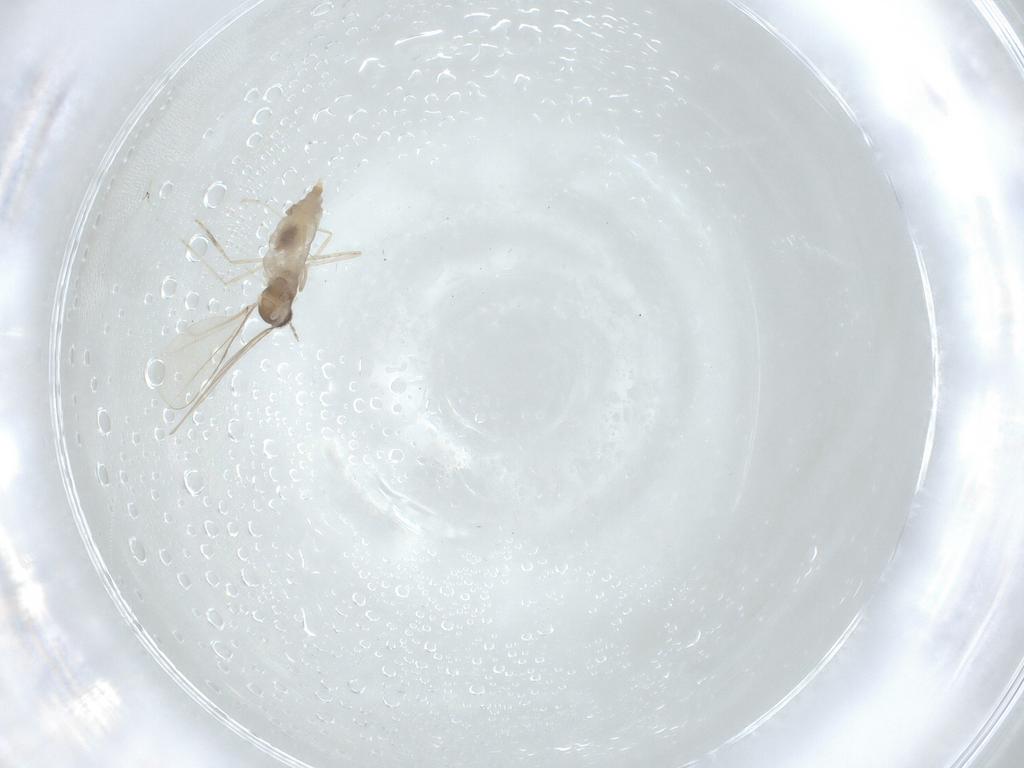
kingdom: Animalia
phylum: Arthropoda
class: Insecta
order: Diptera
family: Cecidomyiidae
